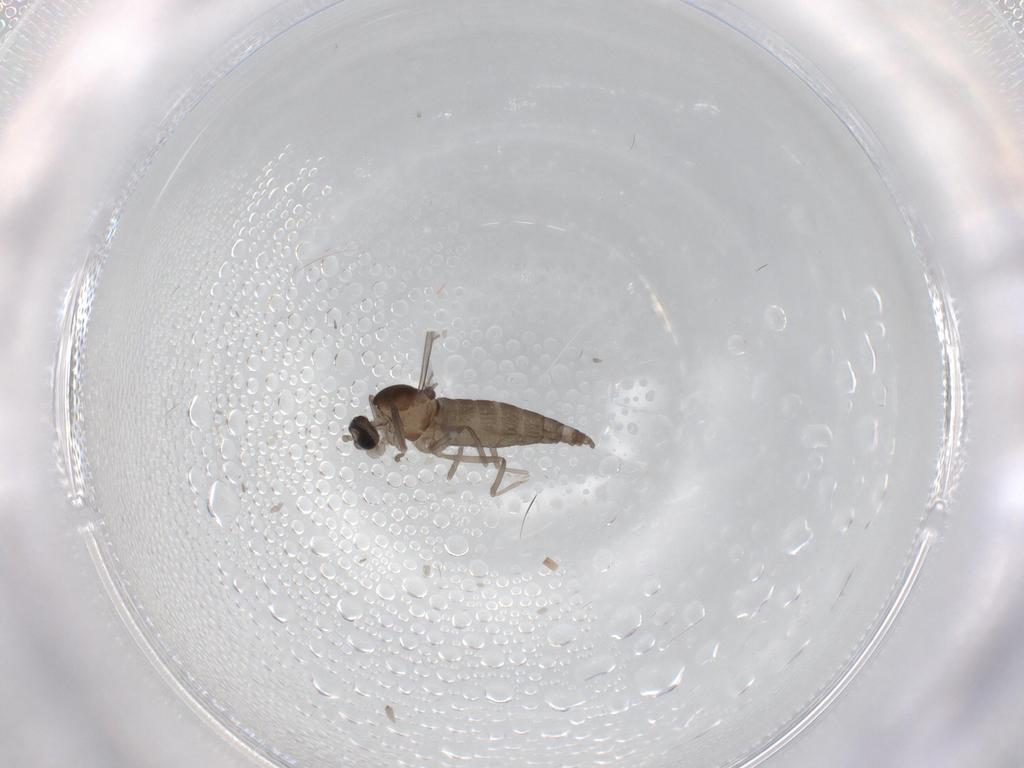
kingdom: Animalia
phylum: Arthropoda
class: Insecta
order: Diptera
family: Cecidomyiidae
